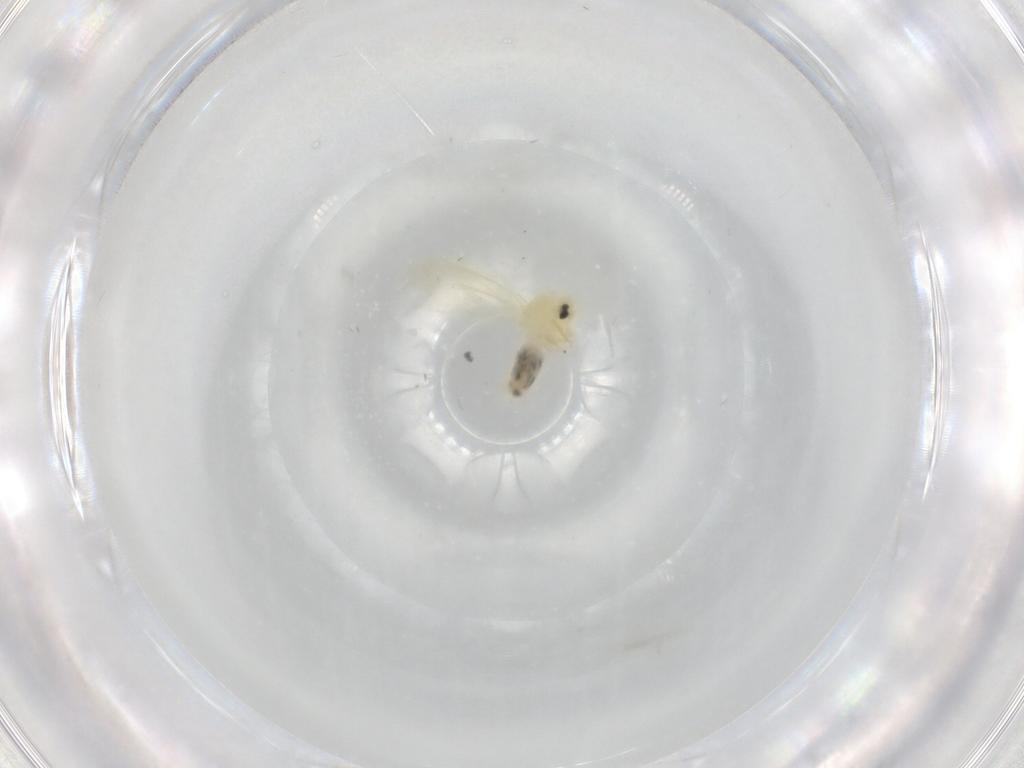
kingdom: Animalia
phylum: Arthropoda
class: Insecta
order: Hemiptera
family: Aleyrodidae
